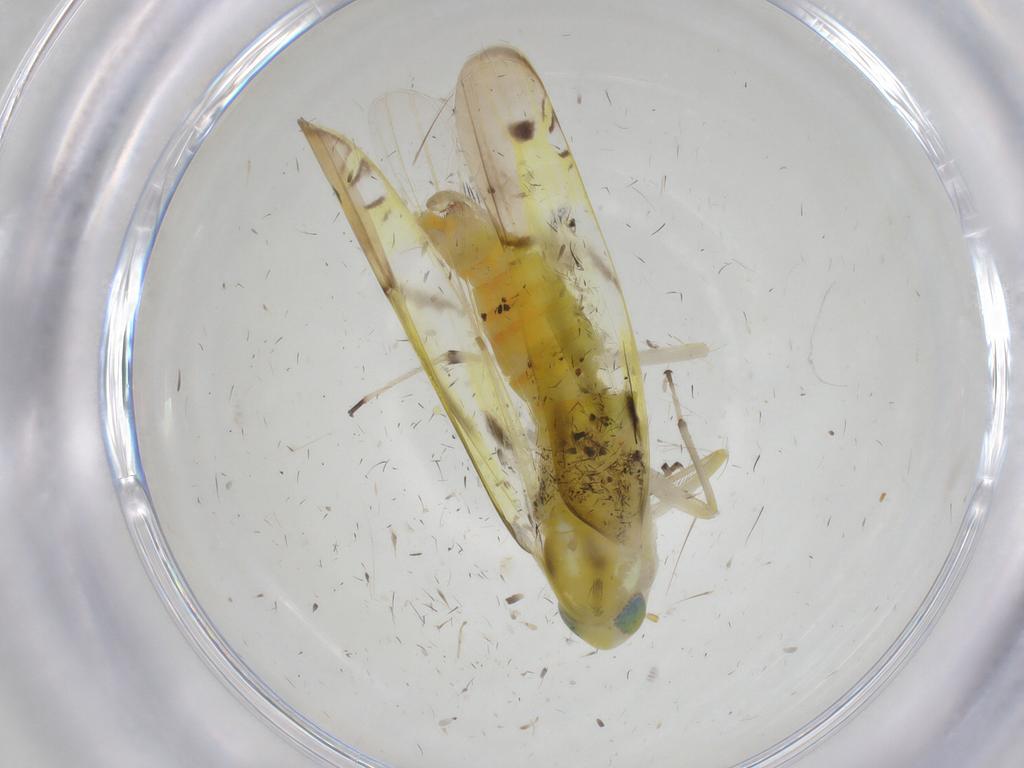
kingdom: Animalia
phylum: Arthropoda
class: Insecta
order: Hemiptera
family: Cicadellidae
